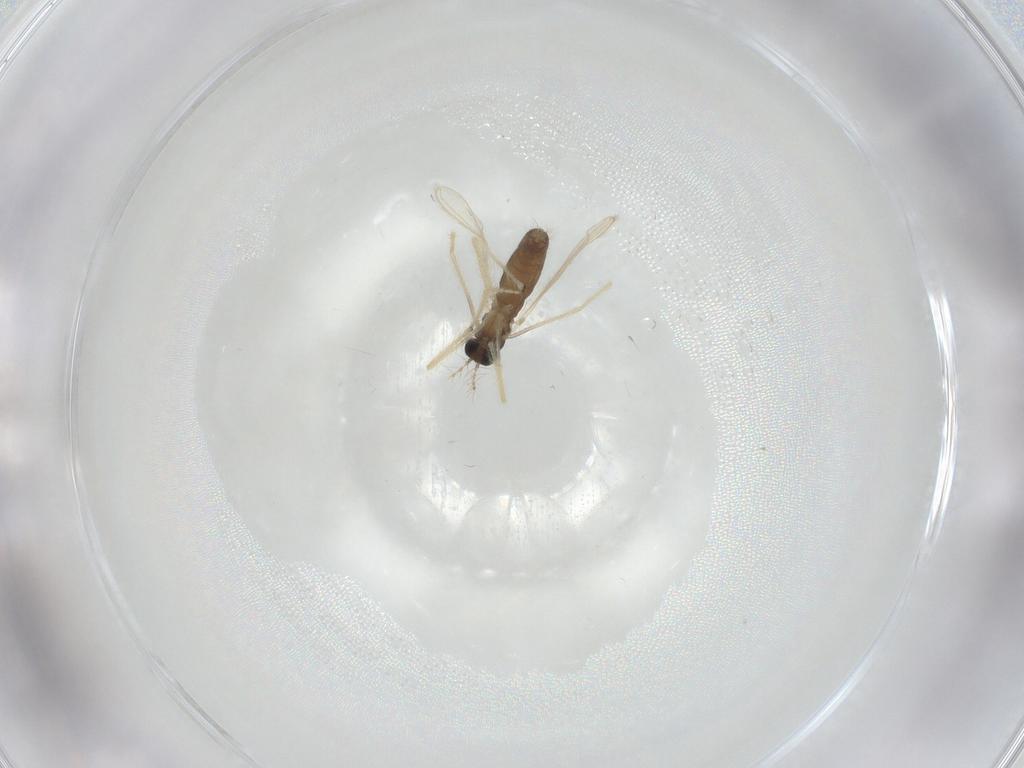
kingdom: Animalia
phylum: Arthropoda
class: Insecta
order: Diptera
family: Chironomidae
